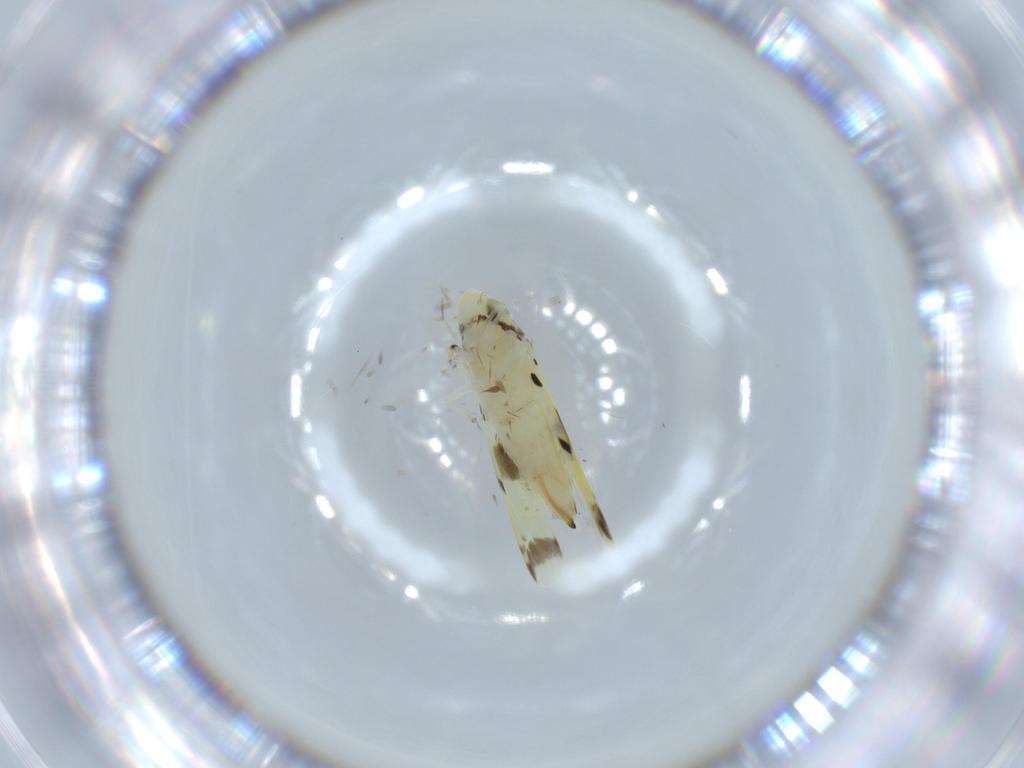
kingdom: Animalia
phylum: Arthropoda
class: Insecta
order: Hemiptera
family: Cicadellidae
